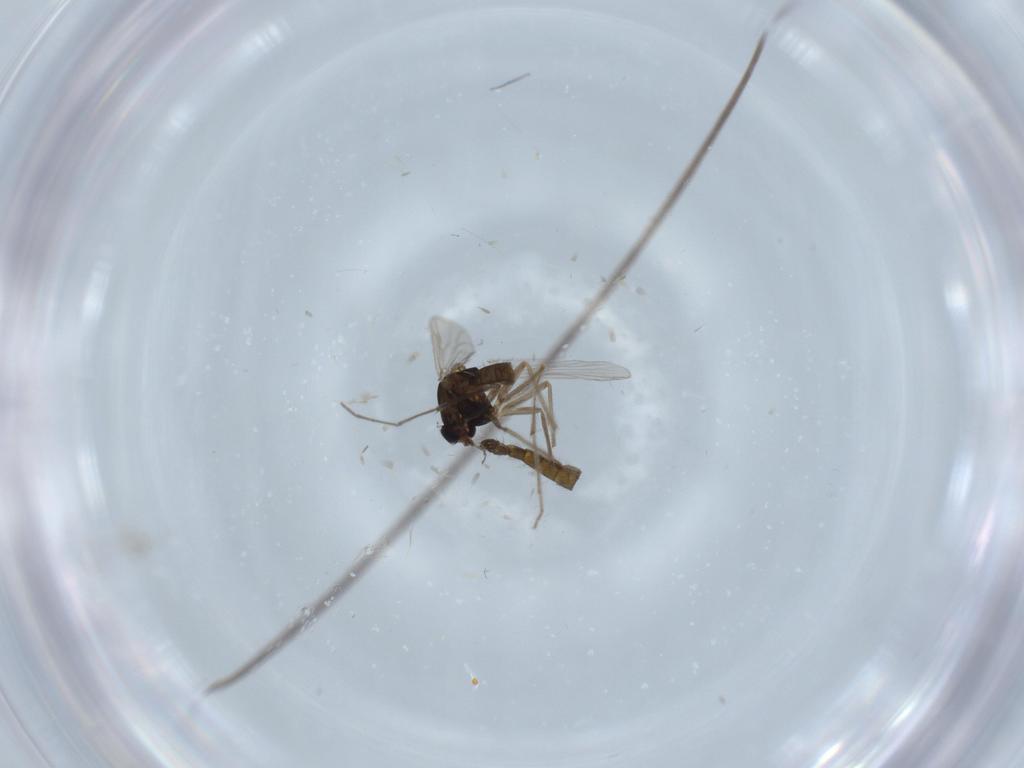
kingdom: Animalia
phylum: Arthropoda
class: Insecta
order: Diptera
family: Chironomidae
